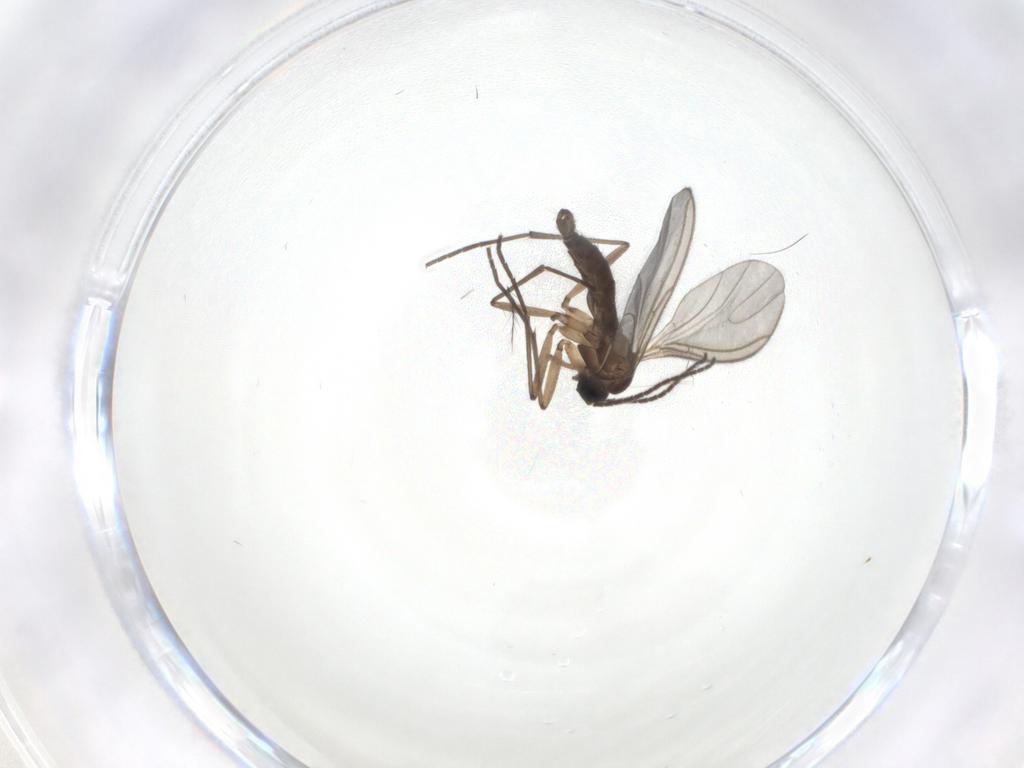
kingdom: Animalia
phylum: Arthropoda
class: Insecta
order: Diptera
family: Sciaridae
